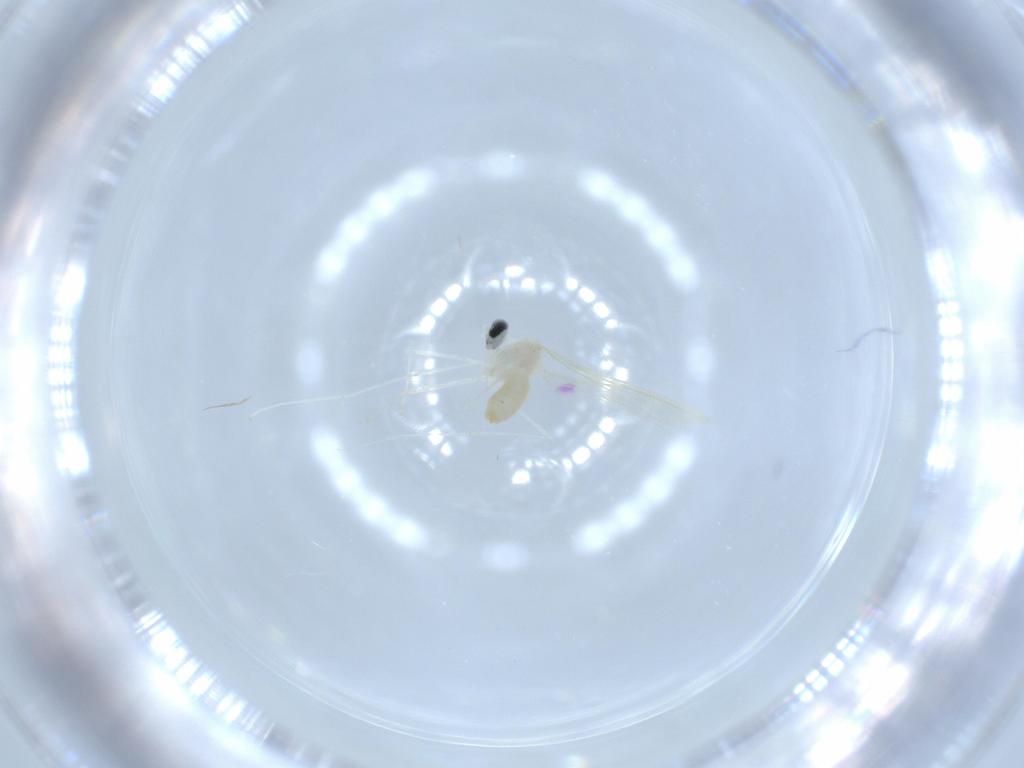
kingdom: Animalia
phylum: Arthropoda
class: Insecta
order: Diptera
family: Cecidomyiidae
